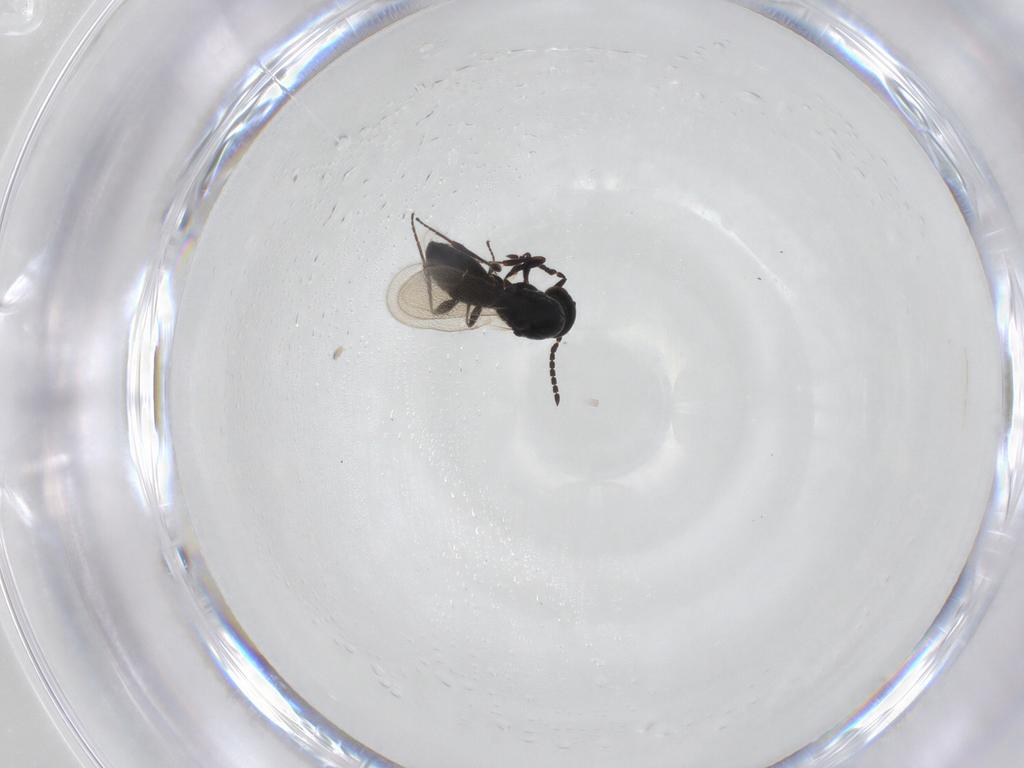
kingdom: Animalia
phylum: Arthropoda
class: Insecta
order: Hymenoptera
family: Platygastridae
